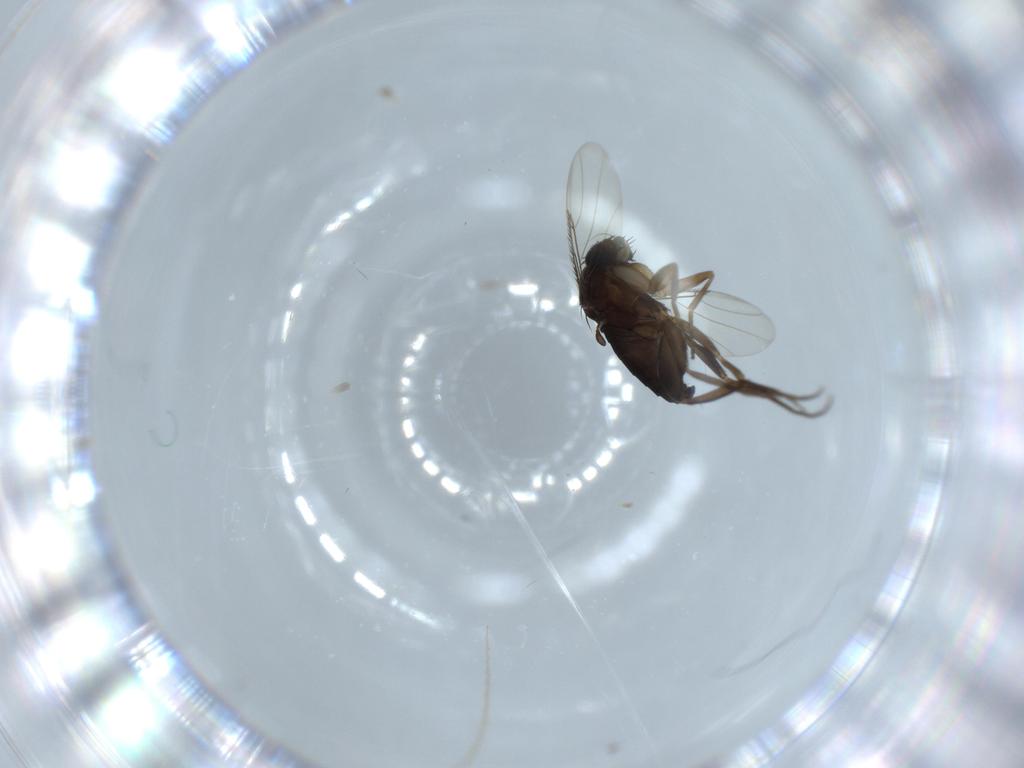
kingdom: Animalia
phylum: Arthropoda
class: Insecta
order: Diptera
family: Phoridae
